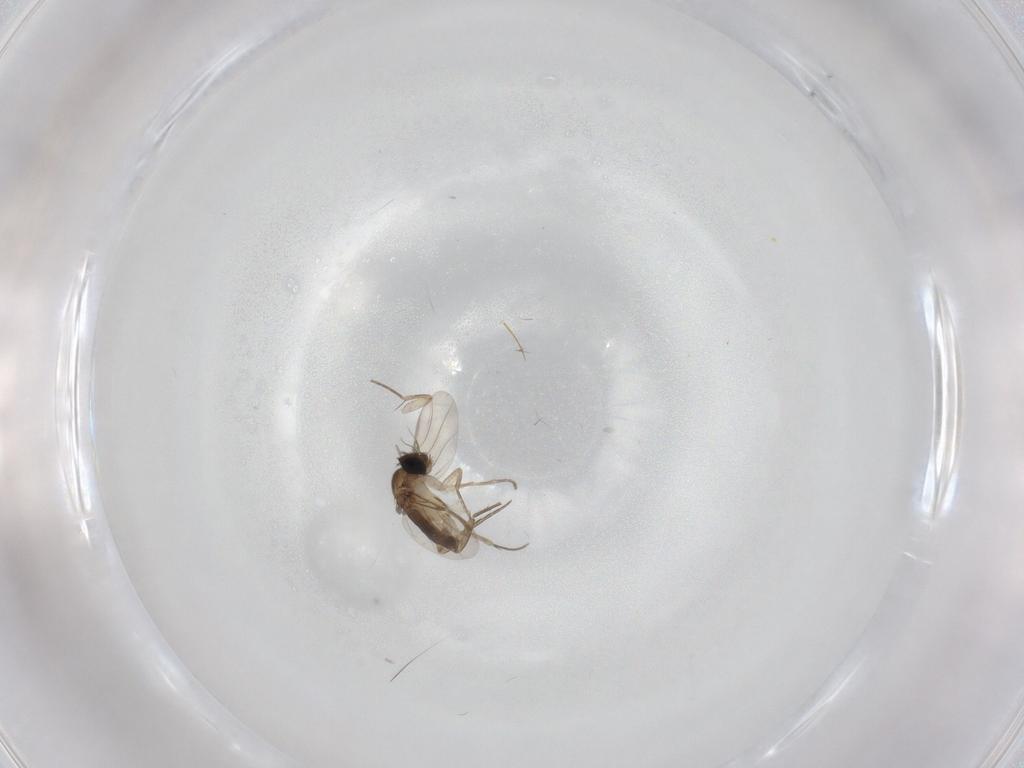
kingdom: Animalia
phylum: Arthropoda
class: Insecta
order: Diptera
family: Phoridae
